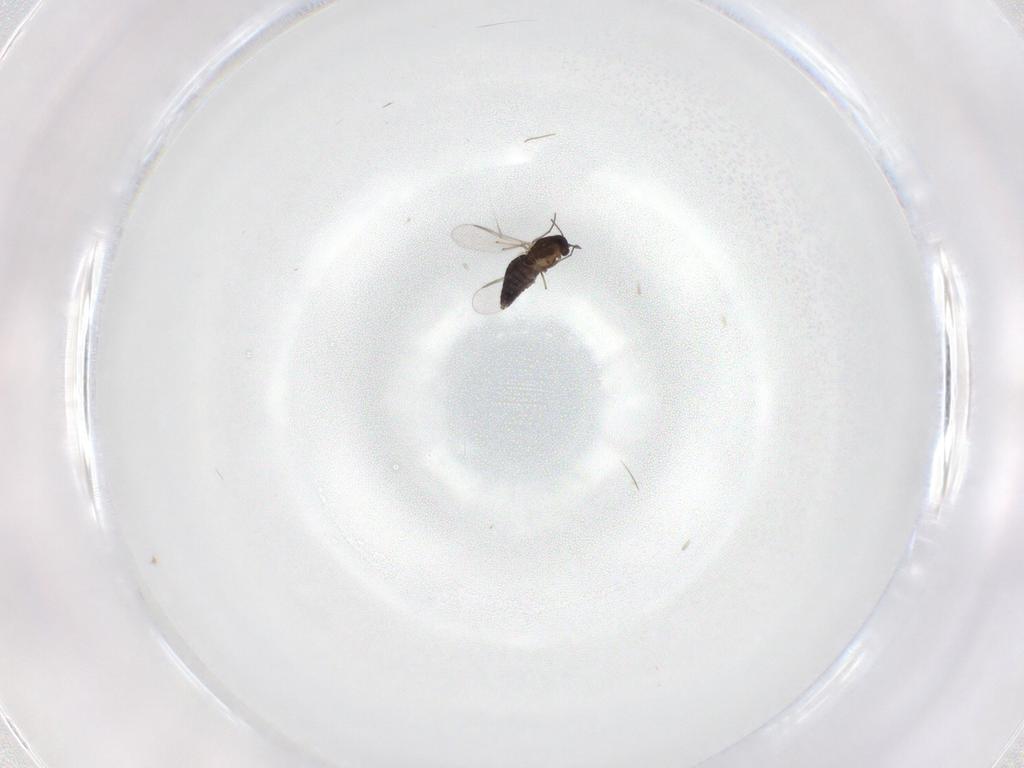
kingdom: Animalia
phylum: Arthropoda
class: Insecta
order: Diptera
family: Chironomidae
